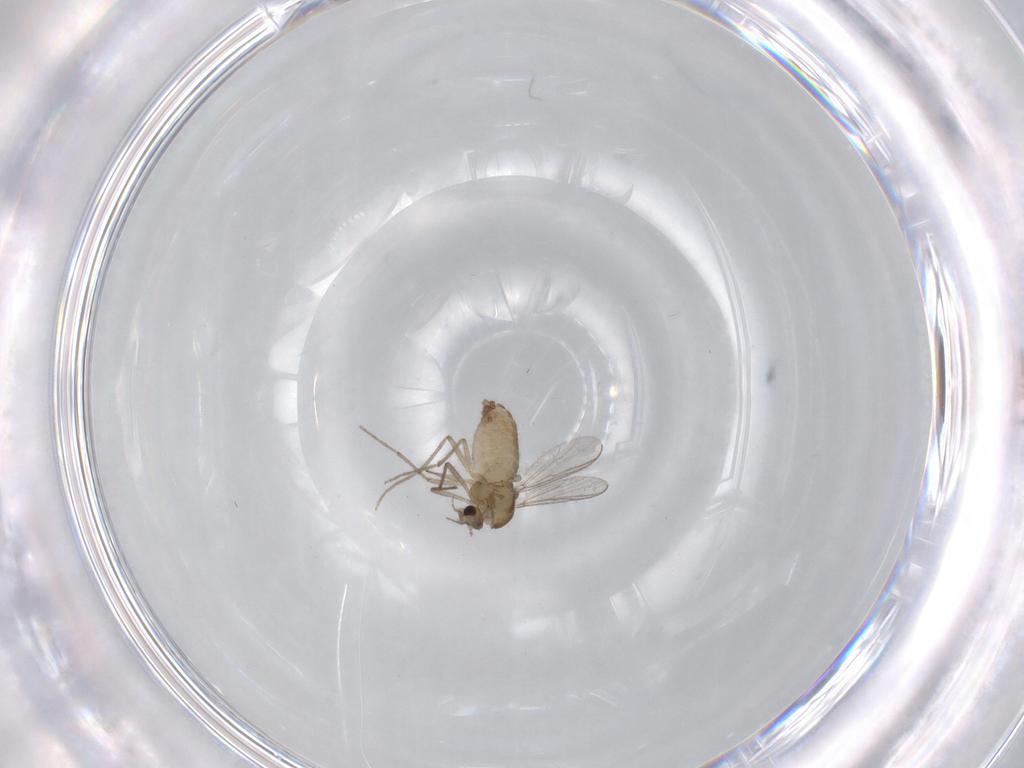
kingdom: Animalia
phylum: Arthropoda
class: Insecta
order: Diptera
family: Chironomidae
